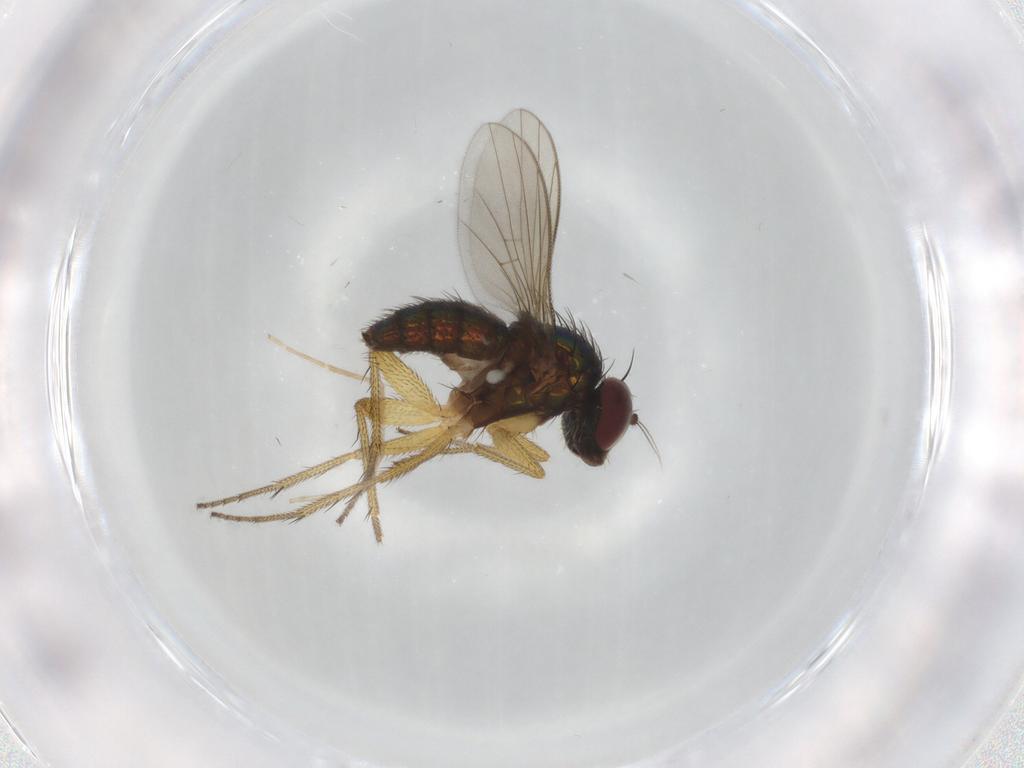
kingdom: Animalia
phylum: Arthropoda
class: Insecta
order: Diptera
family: Dolichopodidae
